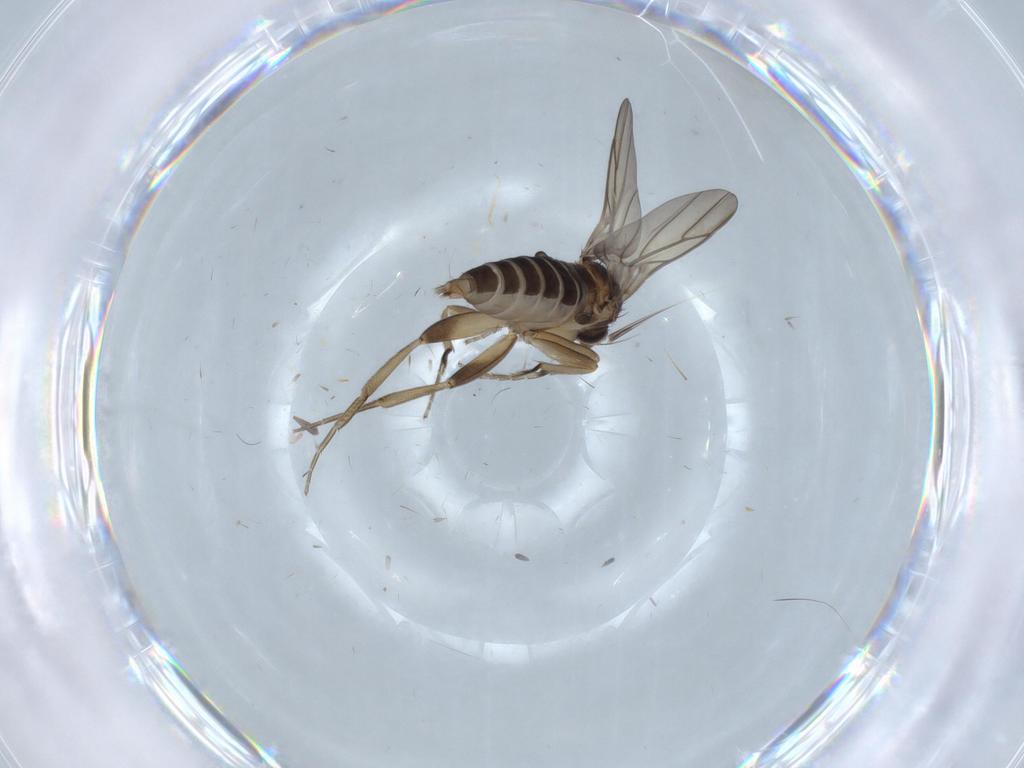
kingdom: Animalia
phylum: Arthropoda
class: Insecta
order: Diptera
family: Phoridae
